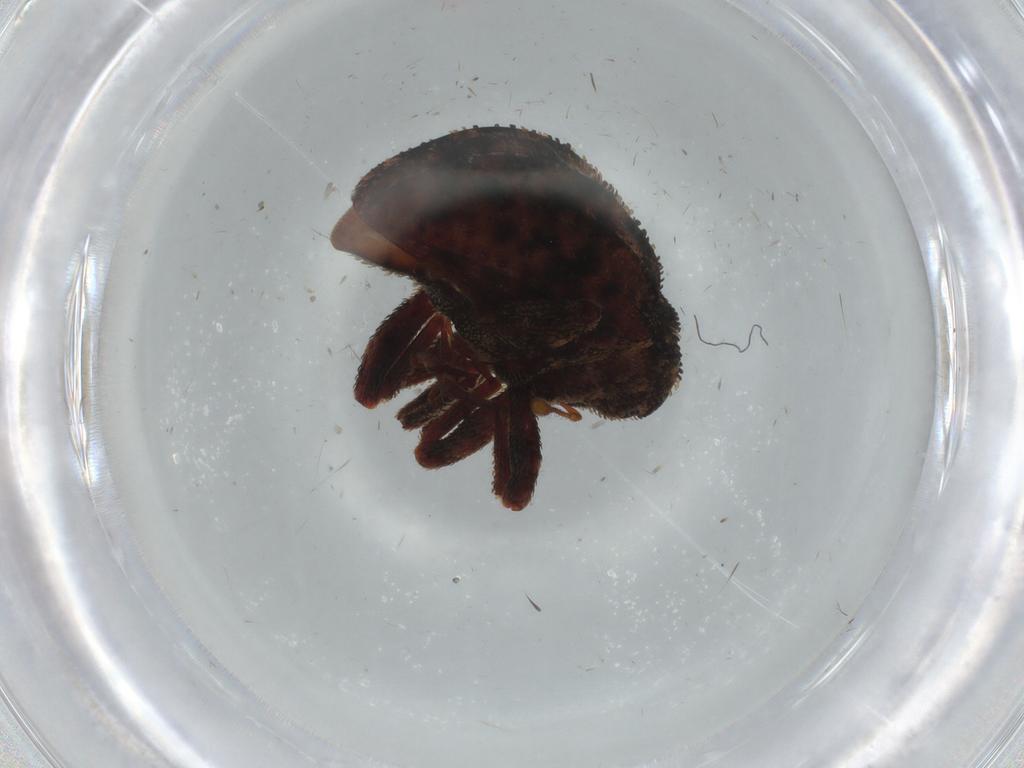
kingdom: Animalia
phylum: Arthropoda
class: Insecta
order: Coleoptera
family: Curculionidae
